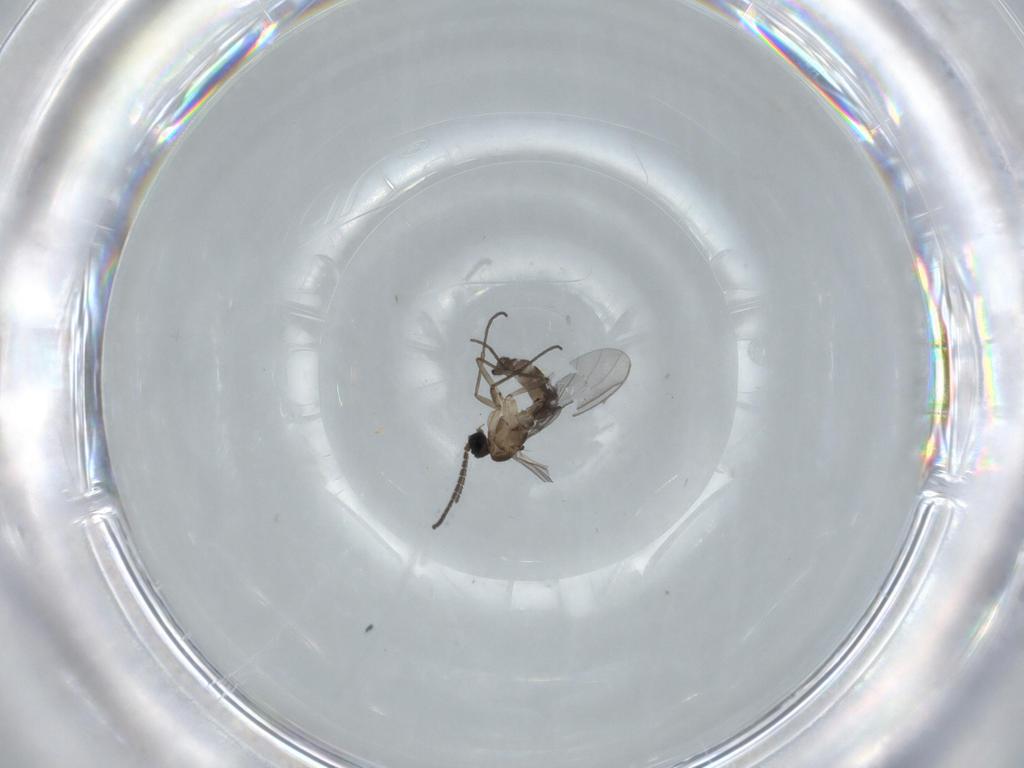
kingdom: Animalia
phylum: Arthropoda
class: Insecta
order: Diptera
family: Sciaridae
